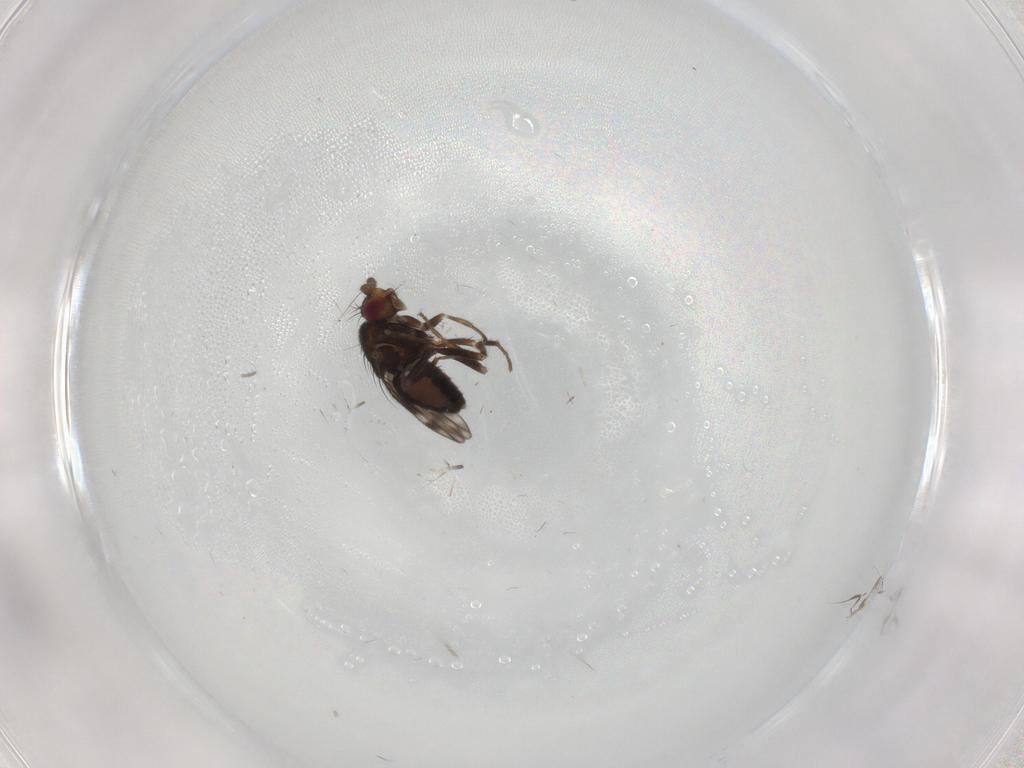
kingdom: Animalia
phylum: Arthropoda
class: Insecta
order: Diptera
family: Sphaeroceridae
